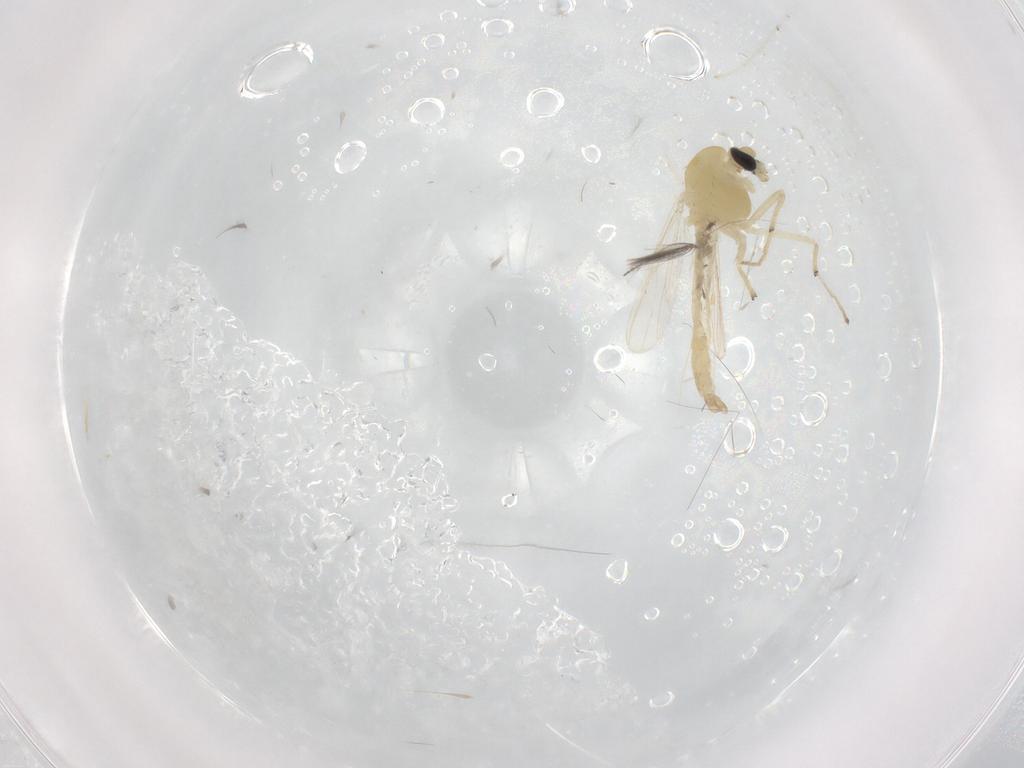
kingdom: Animalia
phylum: Arthropoda
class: Insecta
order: Diptera
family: Chironomidae
